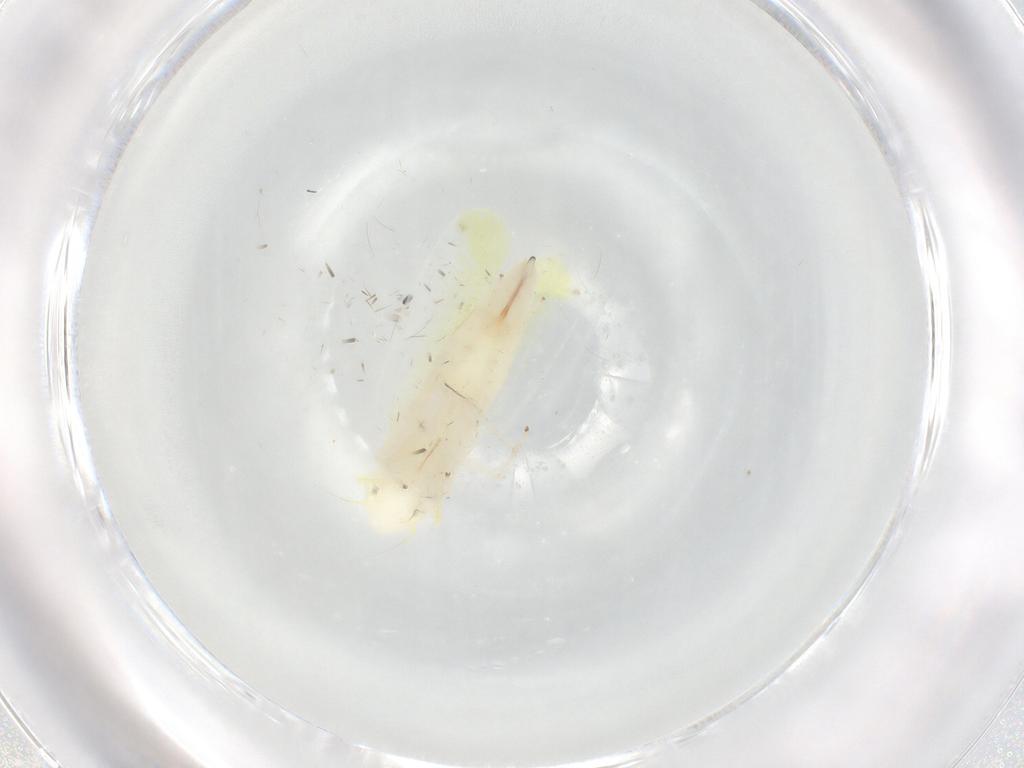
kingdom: Animalia
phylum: Arthropoda
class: Insecta
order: Hemiptera
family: Cicadellidae
